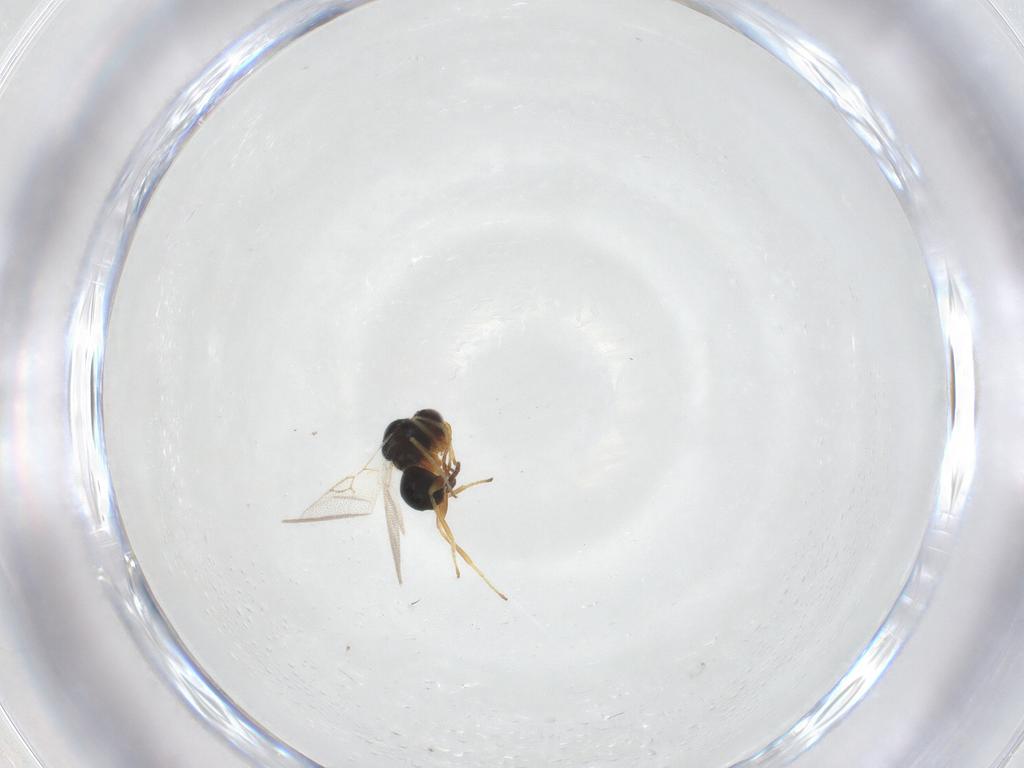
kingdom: Animalia
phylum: Arthropoda
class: Insecta
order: Hymenoptera
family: Figitidae
